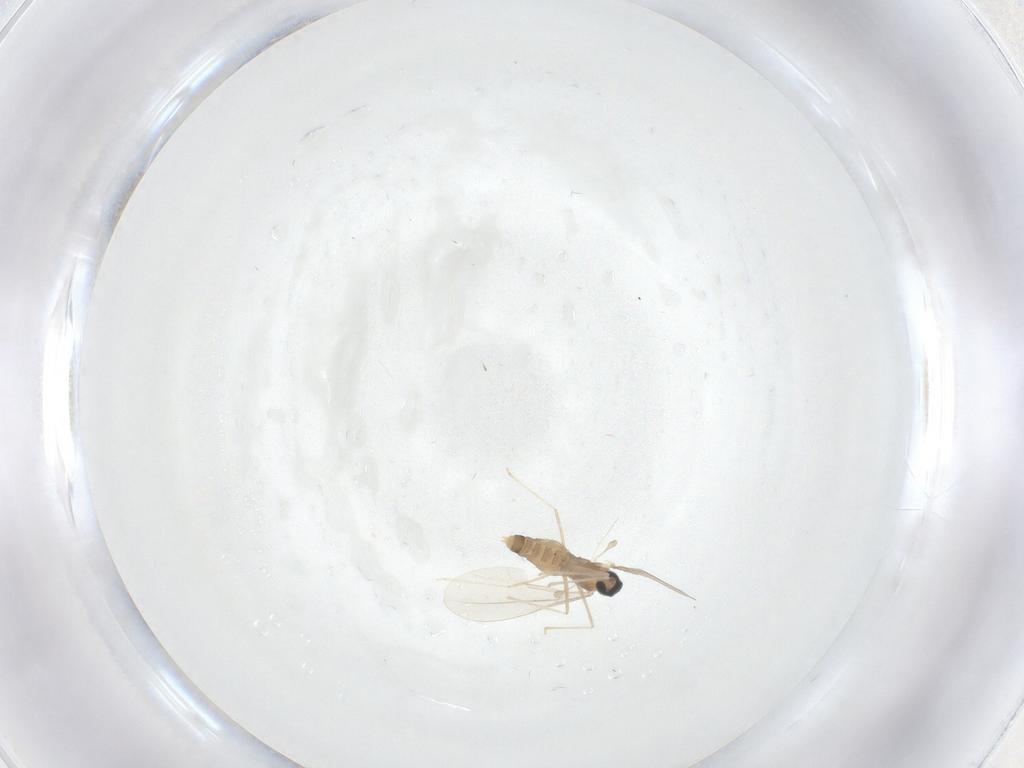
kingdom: Animalia
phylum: Arthropoda
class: Insecta
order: Diptera
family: Cecidomyiidae
